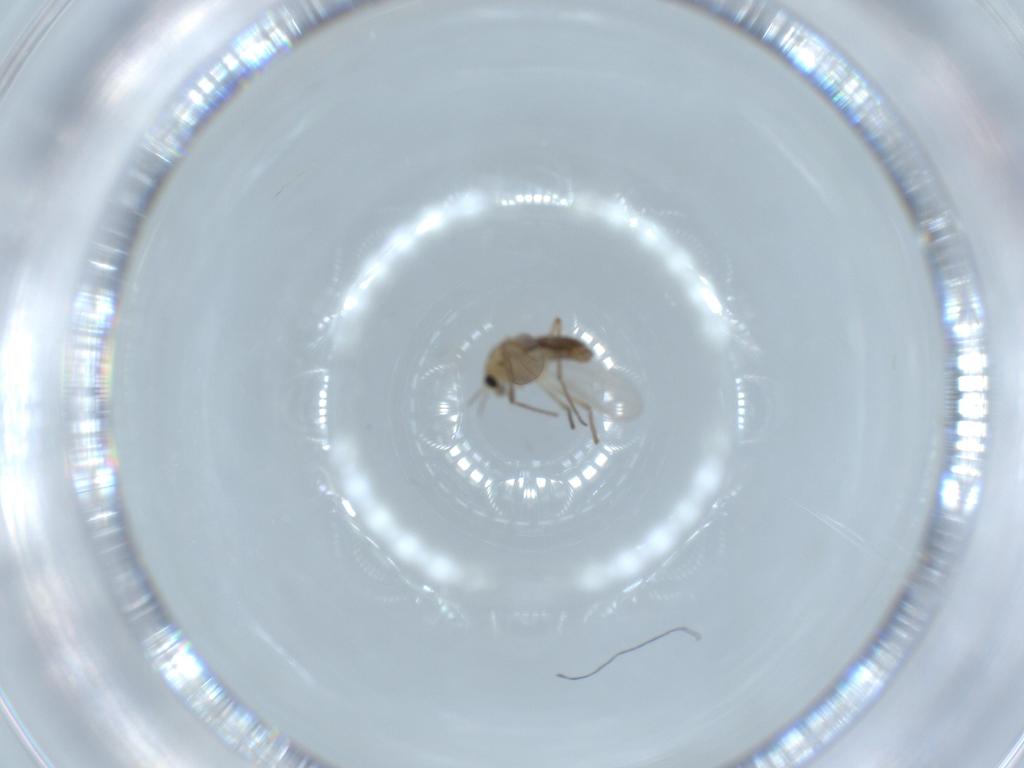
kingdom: Animalia
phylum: Arthropoda
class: Insecta
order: Diptera
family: Chironomidae
